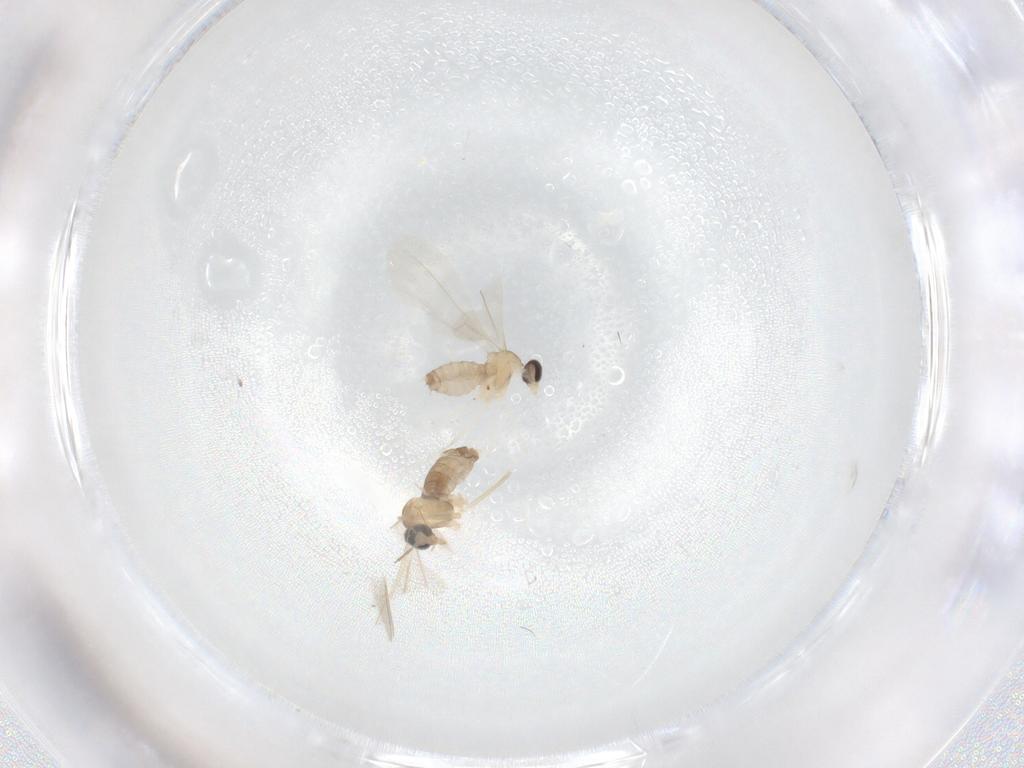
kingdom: Animalia
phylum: Arthropoda
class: Insecta
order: Diptera
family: Cecidomyiidae
